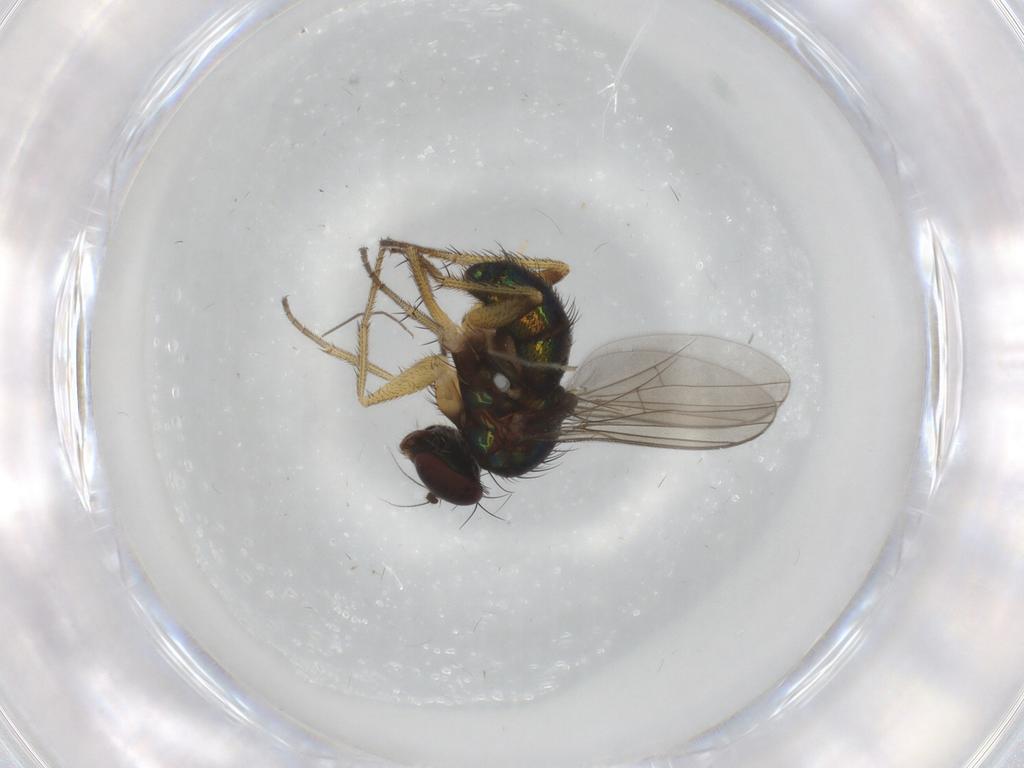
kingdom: Animalia
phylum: Arthropoda
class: Insecta
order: Diptera
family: Dolichopodidae
